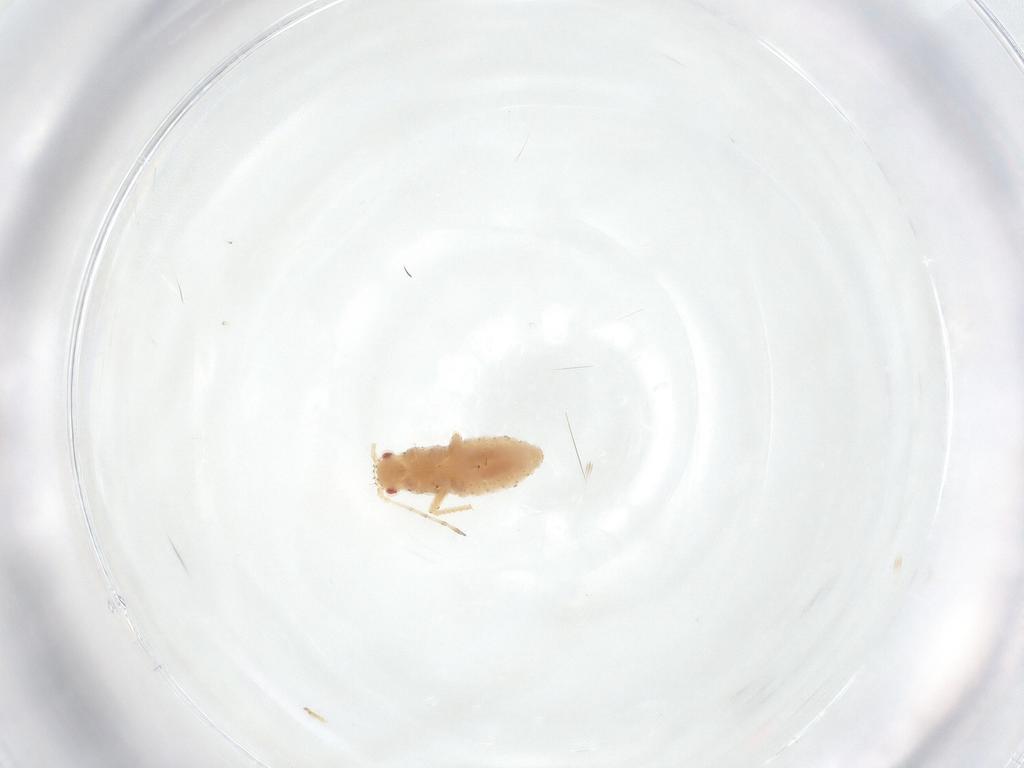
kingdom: Animalia
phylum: Arthropoda
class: Insecta
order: Hemiptera
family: Aphididae
